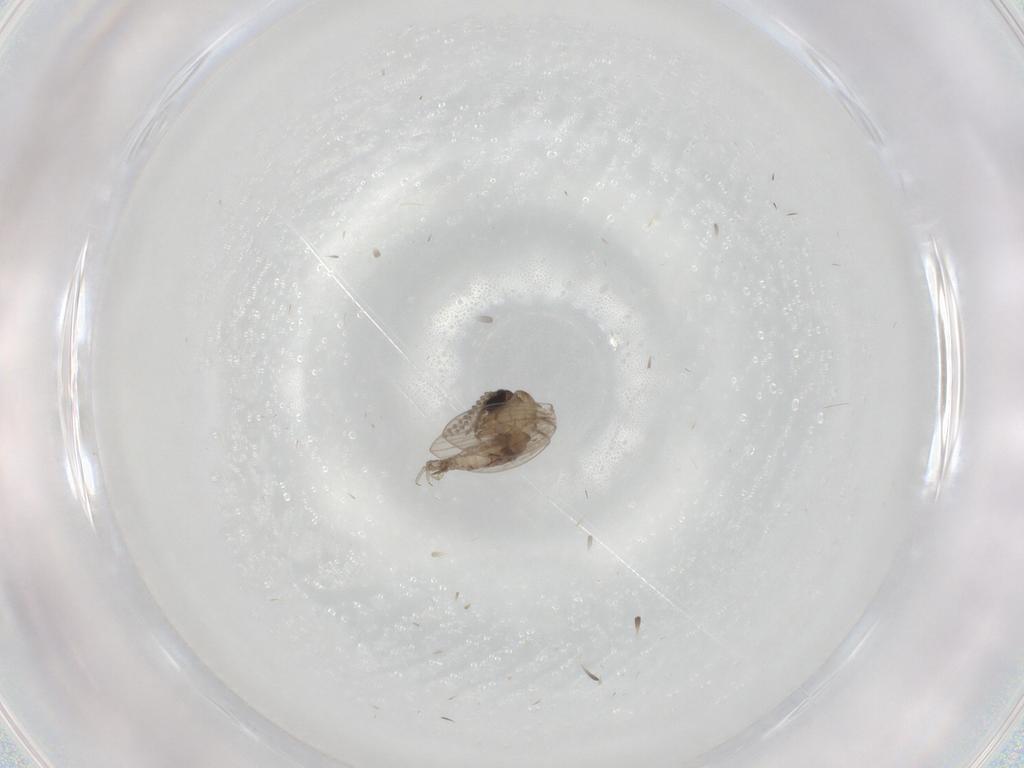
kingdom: Animalia
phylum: Arthropoda
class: Insecta
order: Diptera
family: Psychodidae
